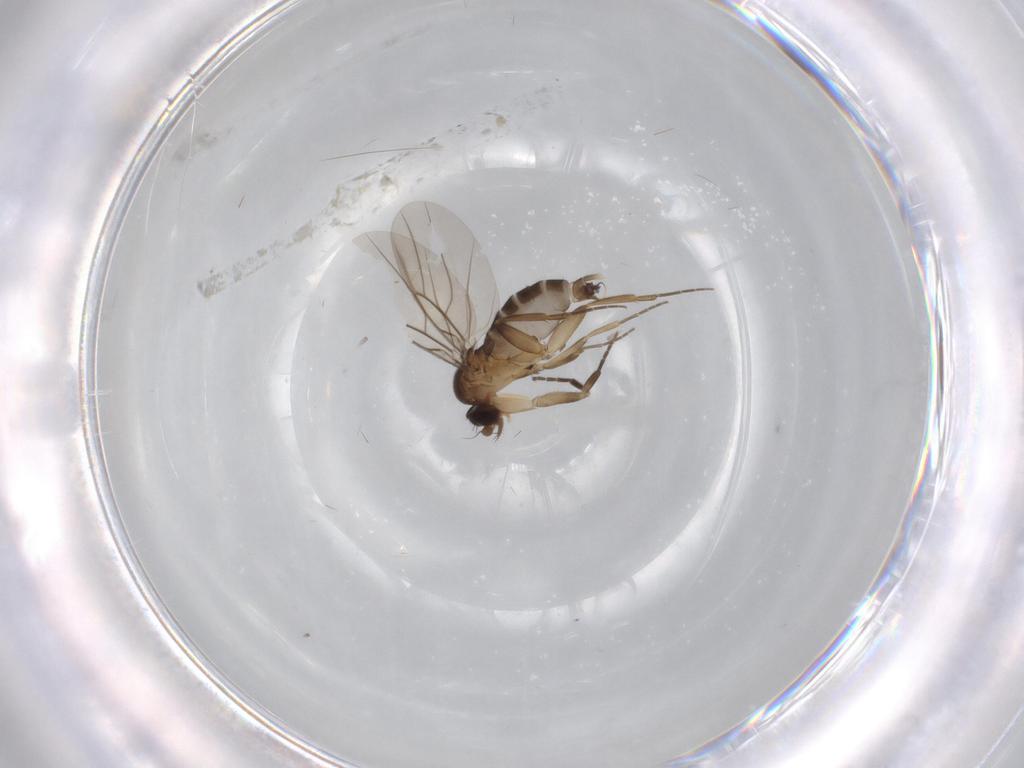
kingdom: Animalia
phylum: Arthropoda
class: Insecta
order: Diptera
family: Phoridae
